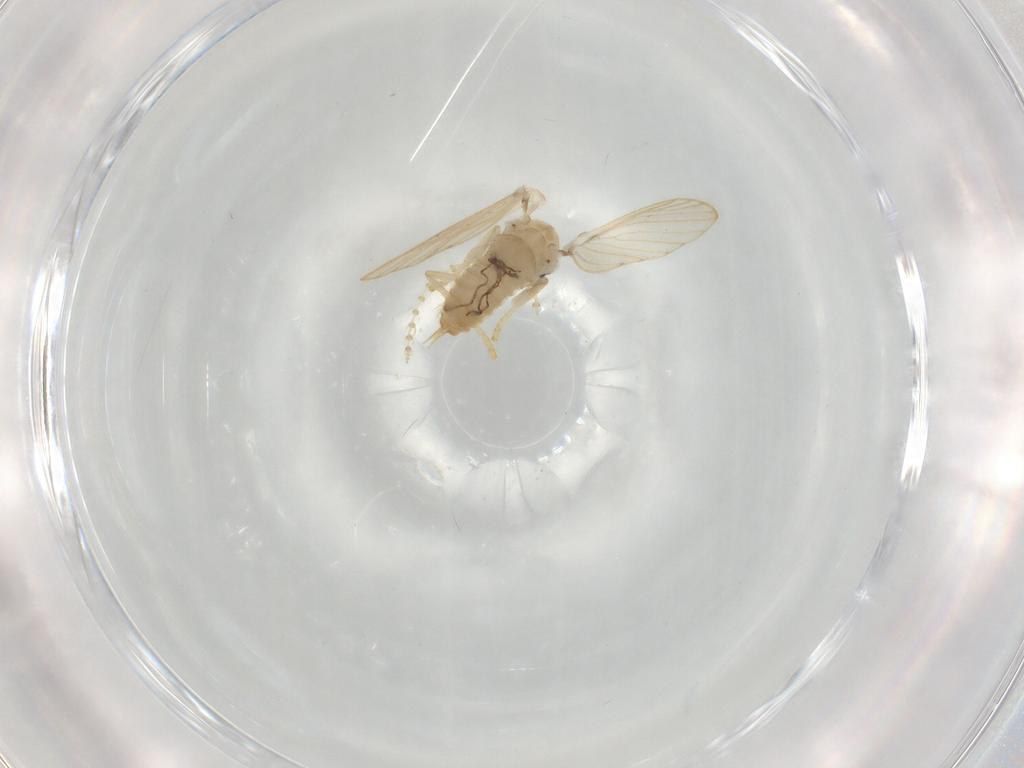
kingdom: Animalia
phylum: Arthropoda
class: Insecta
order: Diptera
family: Psychodidae
